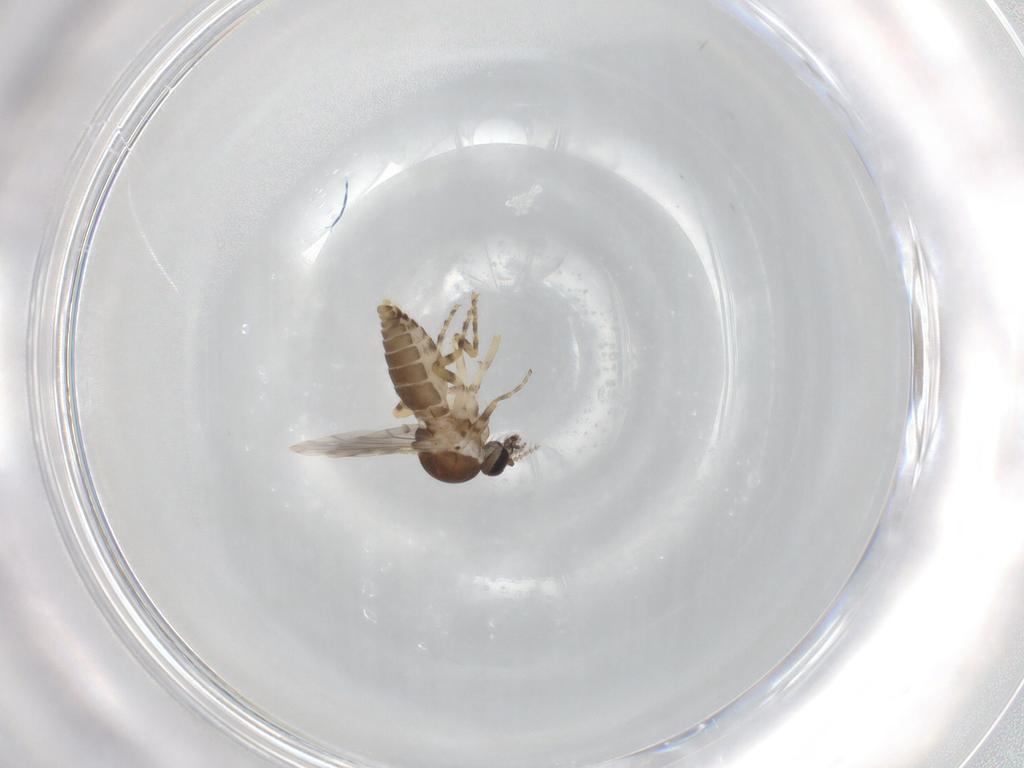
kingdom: Animalia
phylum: Arthropoda
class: Insecta
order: Diptera
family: Ceratopogonidae
